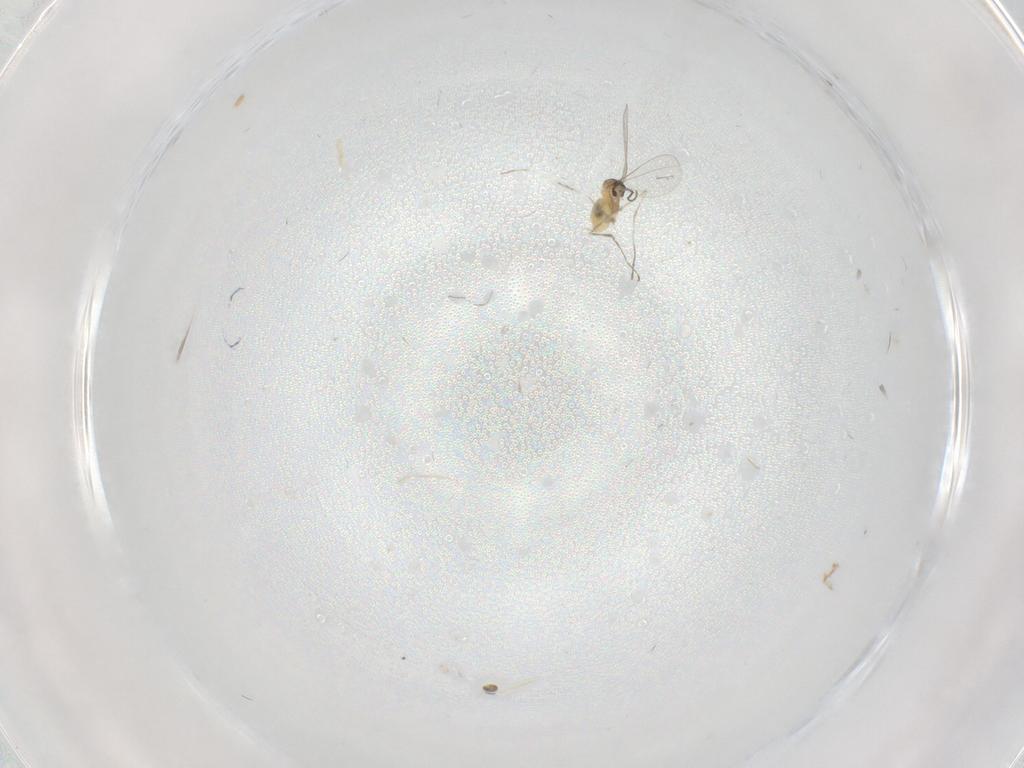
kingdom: Animalia
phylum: Arthropoda
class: Insecta
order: Diptera
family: Cecidomyiidae
